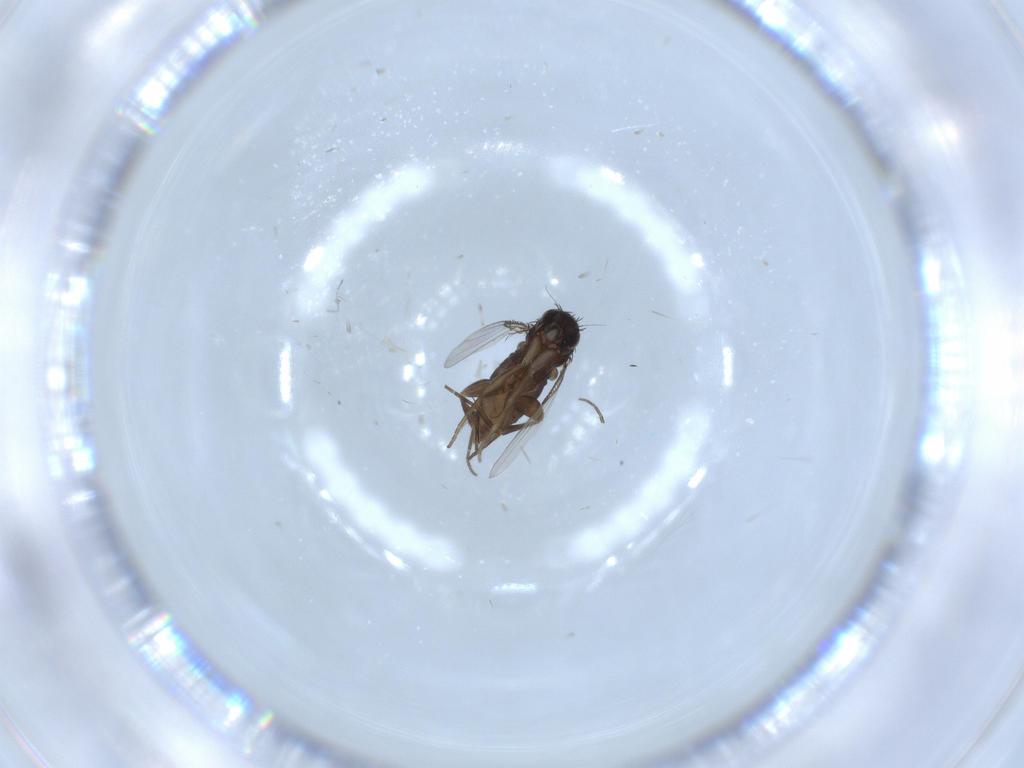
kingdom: Animalia
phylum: Arthropoda
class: Insecta
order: Diptera
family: Phoridae
